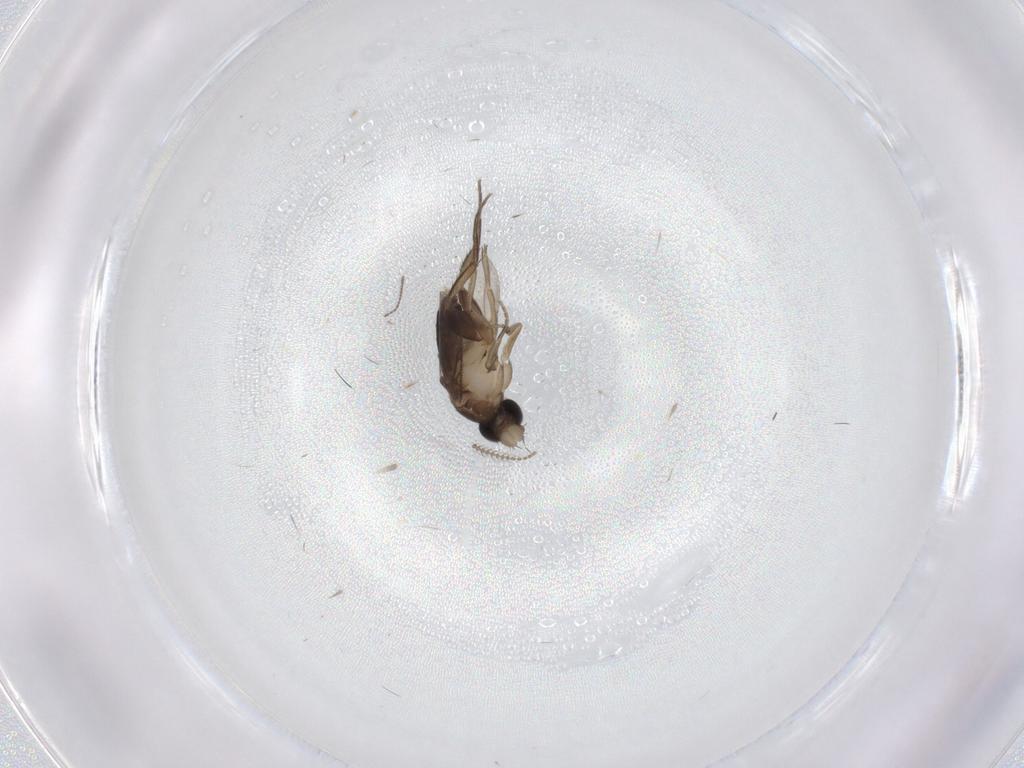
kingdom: Animalia
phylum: Arthropoda
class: Insecta
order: Diptera
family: Phoridae
